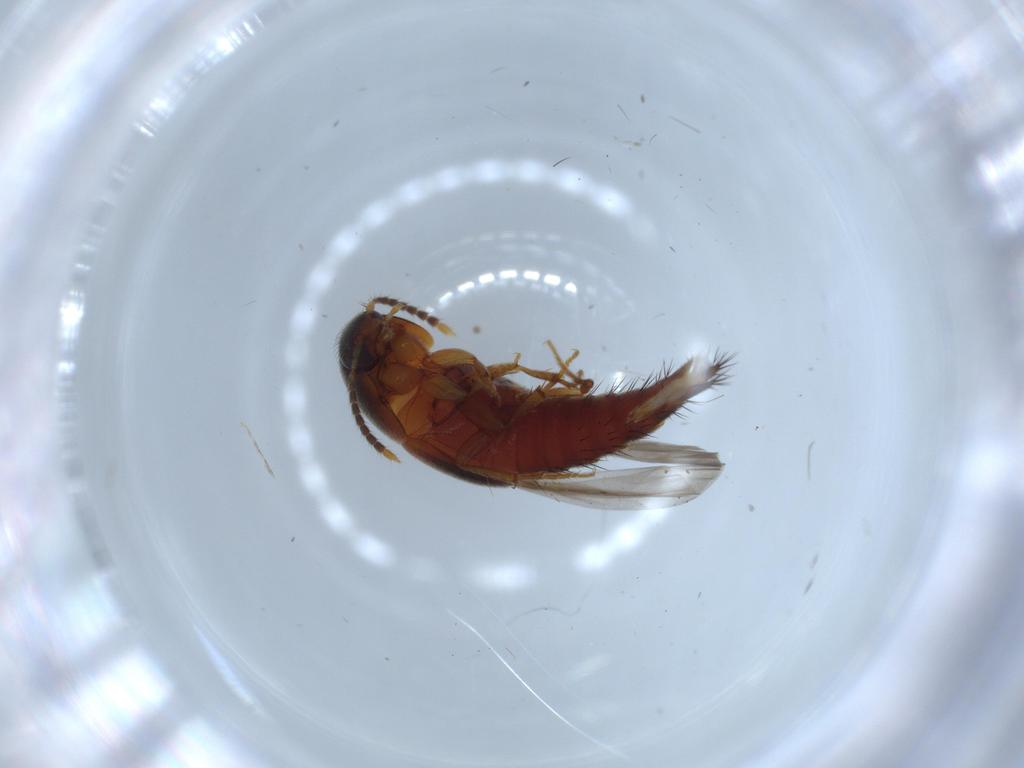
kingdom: Animalia
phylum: Arthropoda
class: Insecta
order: Coleoptera
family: Staphylinidae
